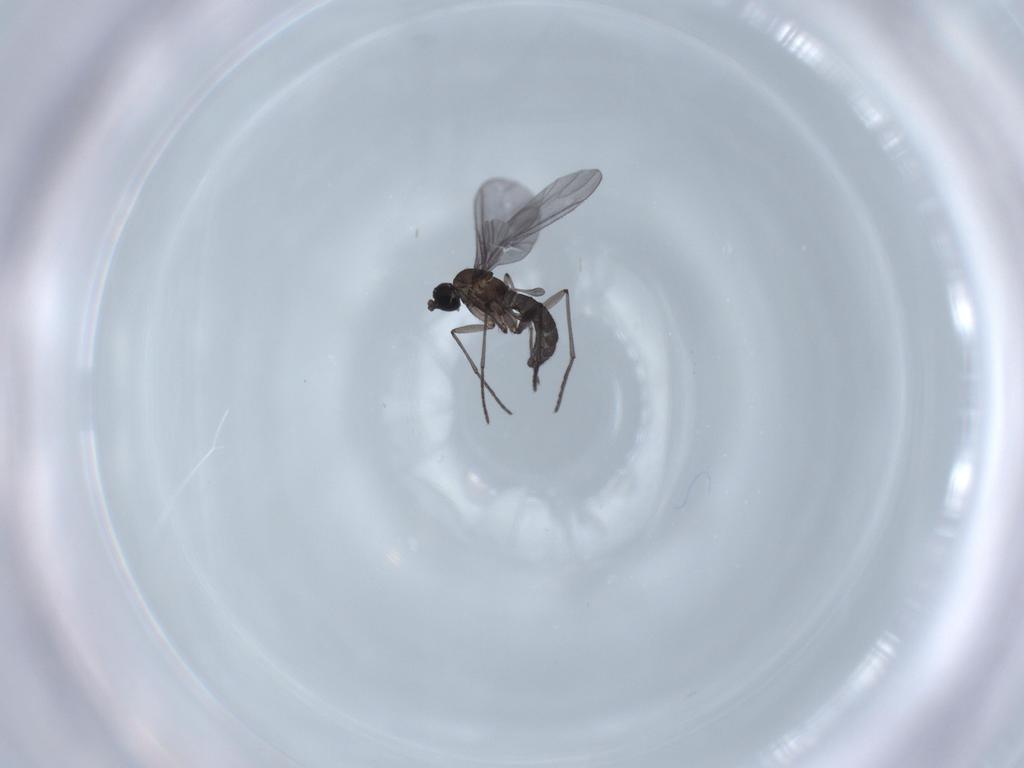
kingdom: Animalia
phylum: Arthropoda
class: Insecta
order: Diptera
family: Sciaridae
